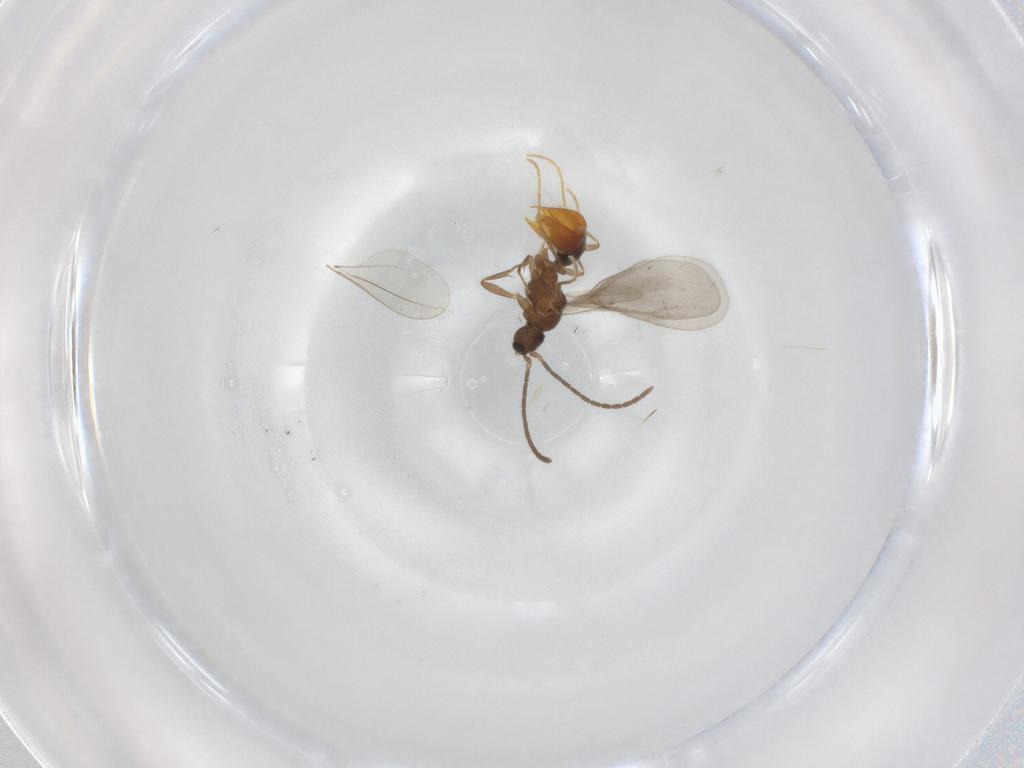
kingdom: Animalia
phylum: Arthropoda
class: Insecta
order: Hymenoptera
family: Formicidae
